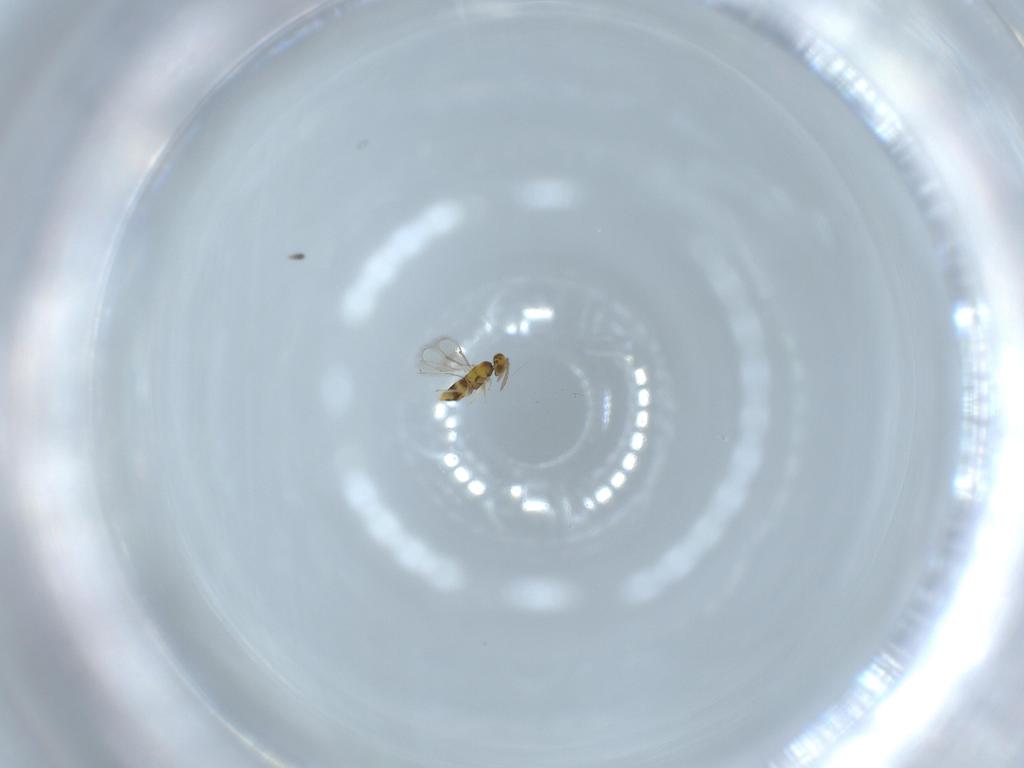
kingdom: Animalia
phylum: Arthropoda
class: Insecta
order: Hymenoptera
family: Aphelinidae
